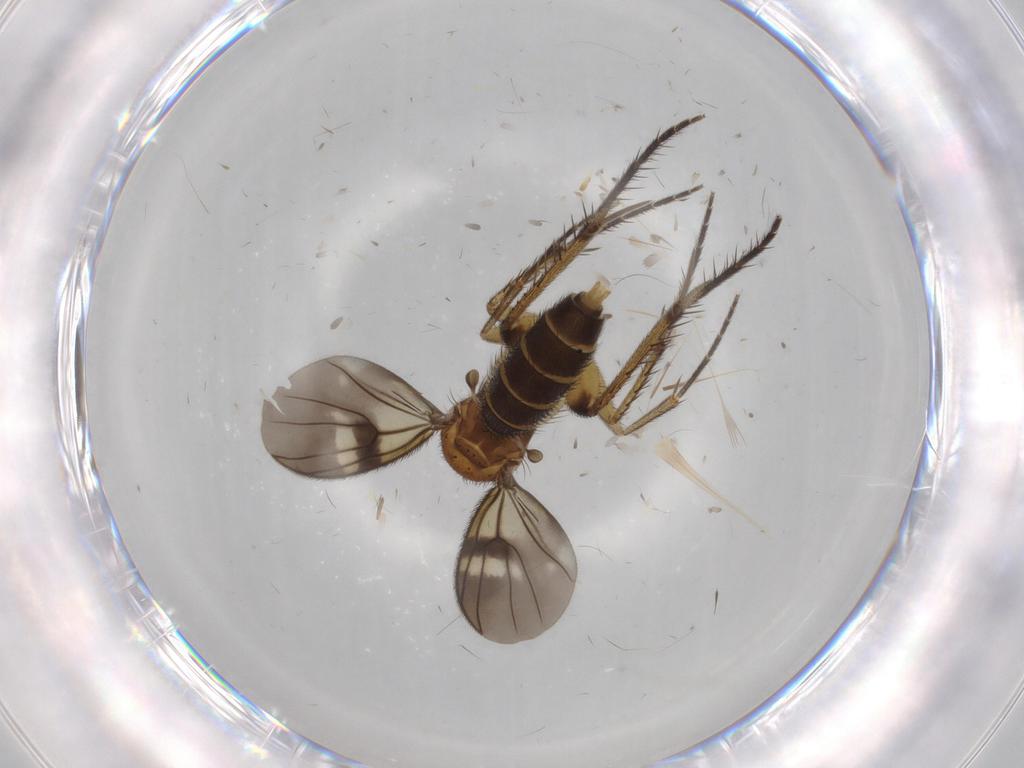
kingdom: Animalia
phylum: Arthropoda
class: Insecta
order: Diptera
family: Mycetophilidae
